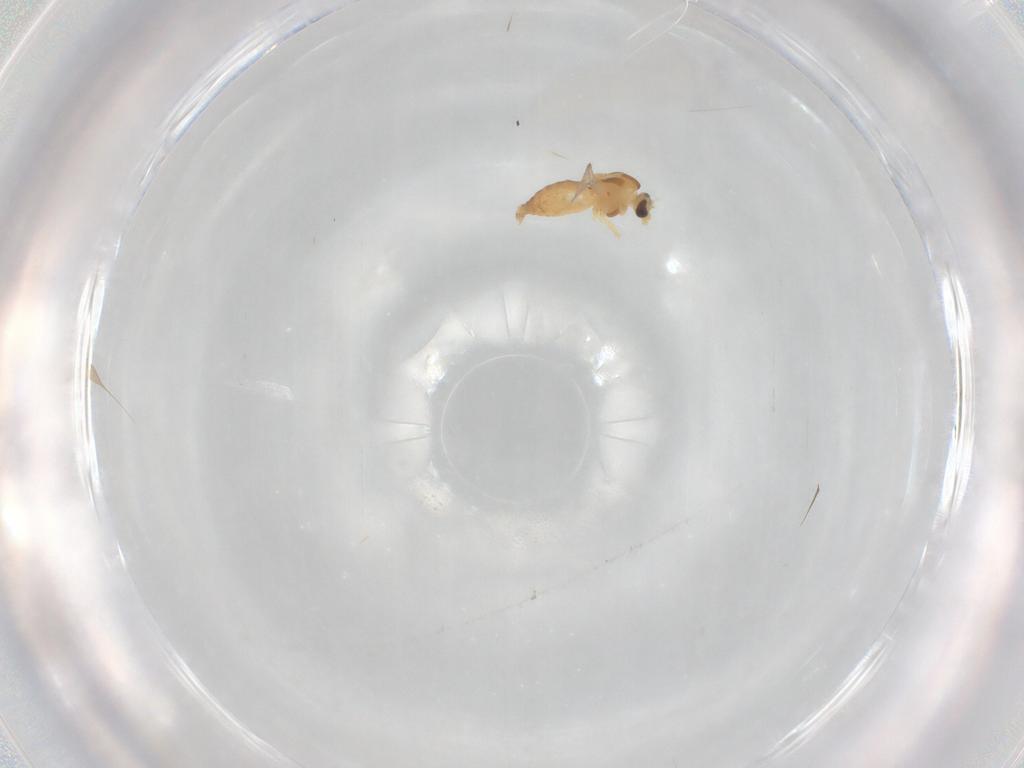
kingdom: Animalia
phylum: Arthropoda
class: Insecta
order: Diptera
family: Chironomidae
